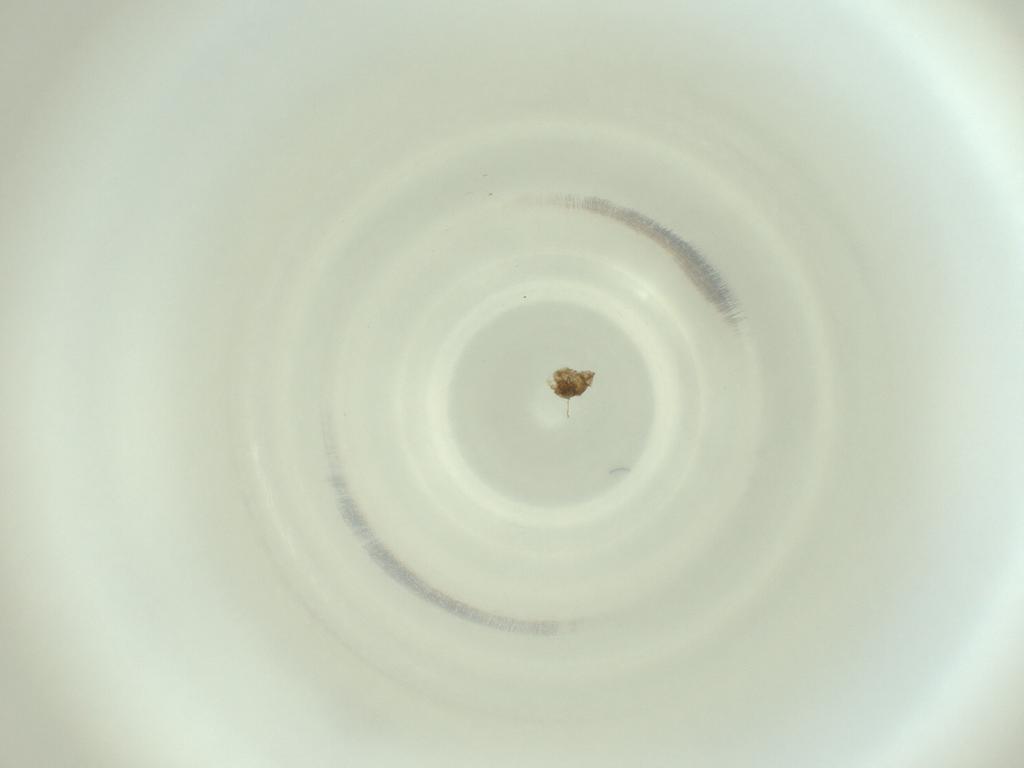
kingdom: Animalia
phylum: Arthropoda
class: Insecta
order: Diptera
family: Cecidomyiidae
